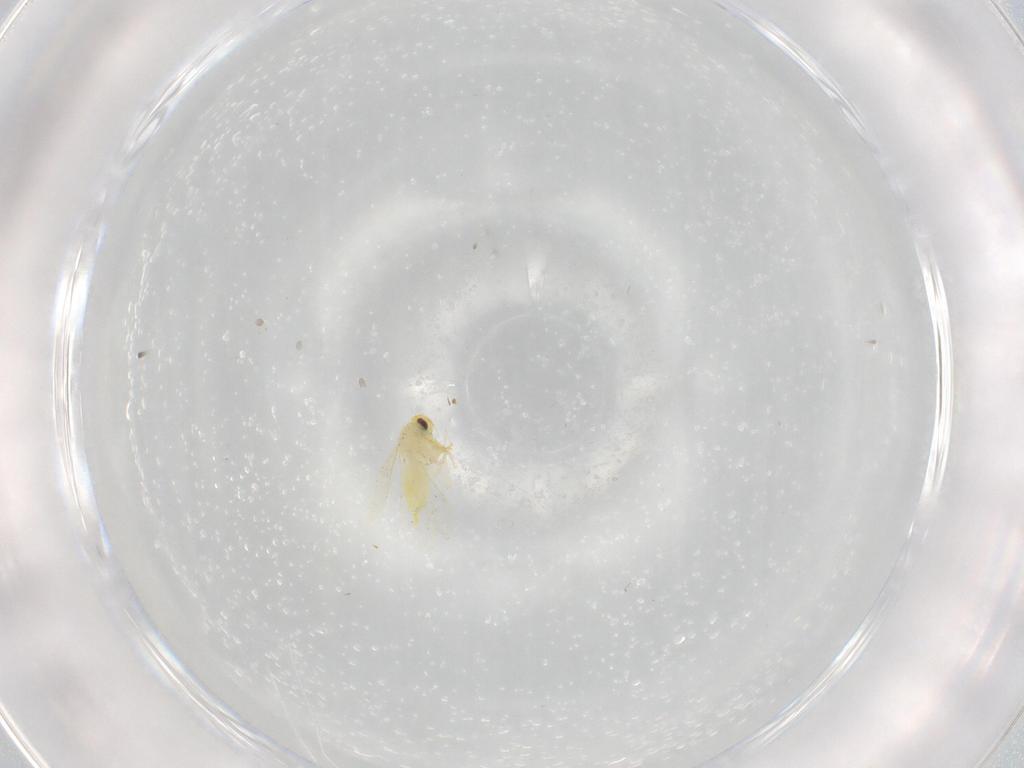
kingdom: Animalia
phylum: Arthropoda
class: Insecta
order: Hemiptera
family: Aleyrodidae
